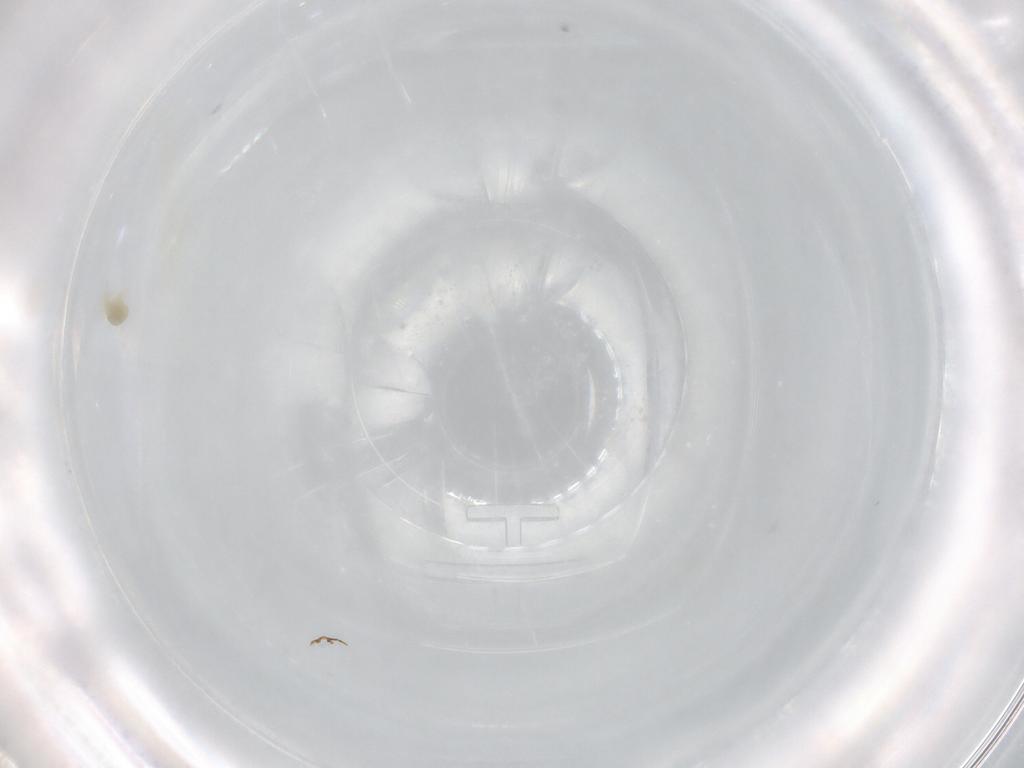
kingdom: Animalia
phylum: Arthropoda
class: Arachnida
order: Trombidiformes
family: Eupodidae
